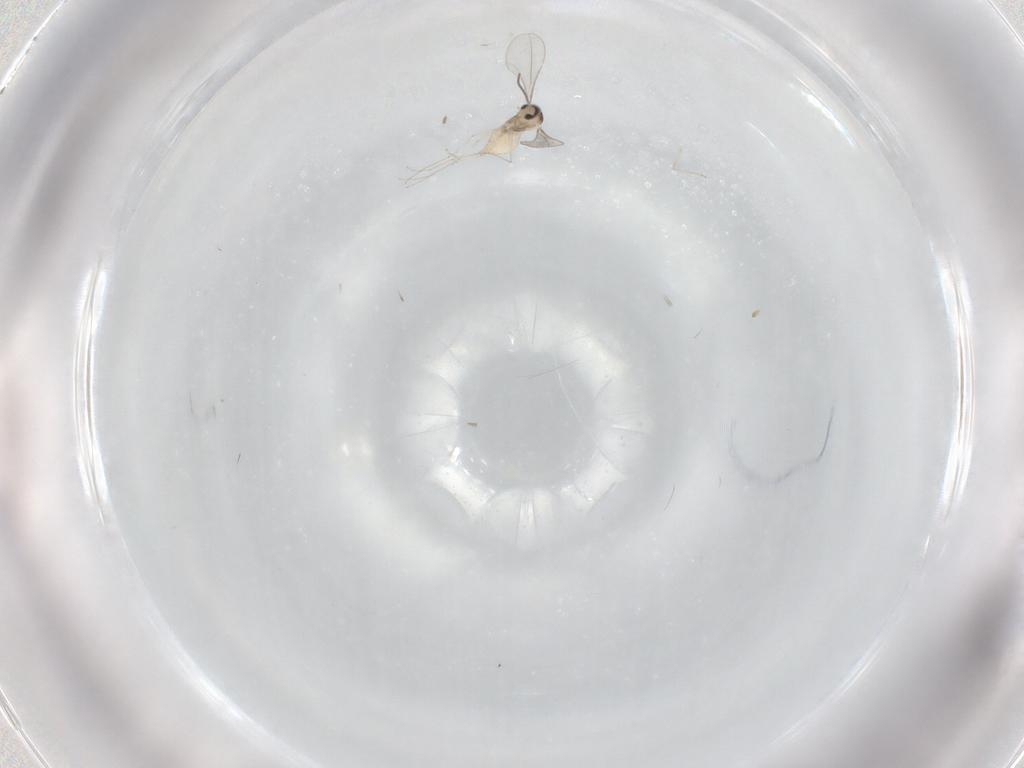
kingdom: Animalia
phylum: Arthropoda
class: Insecta
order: Diptera
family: Cecidomyiidae
